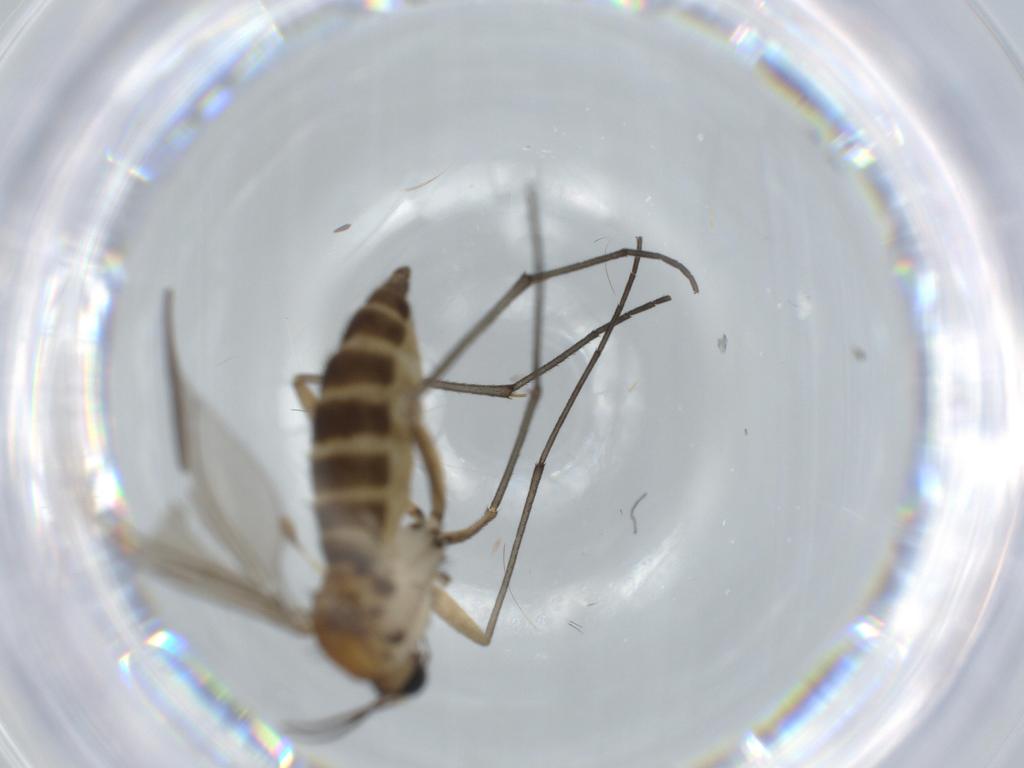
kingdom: Animalia
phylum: Arthropoda
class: Insecta
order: Diptera
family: Sciaridae
